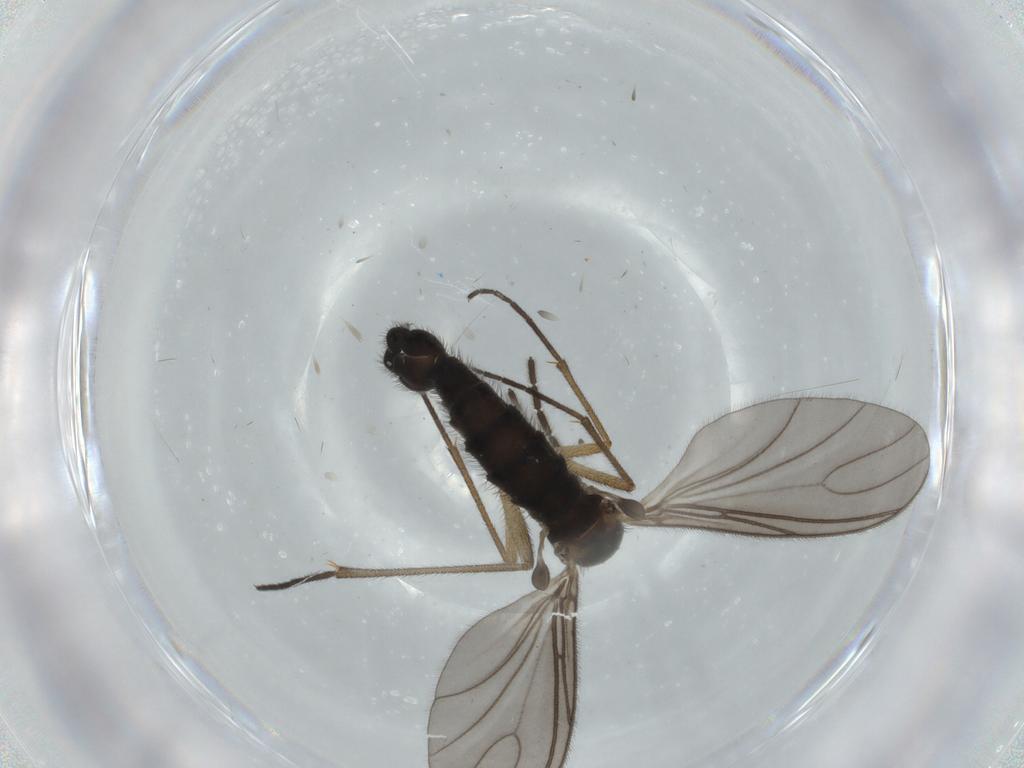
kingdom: Animalia
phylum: Arthropoda
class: Insecta
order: Diptera
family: Sciaridae
